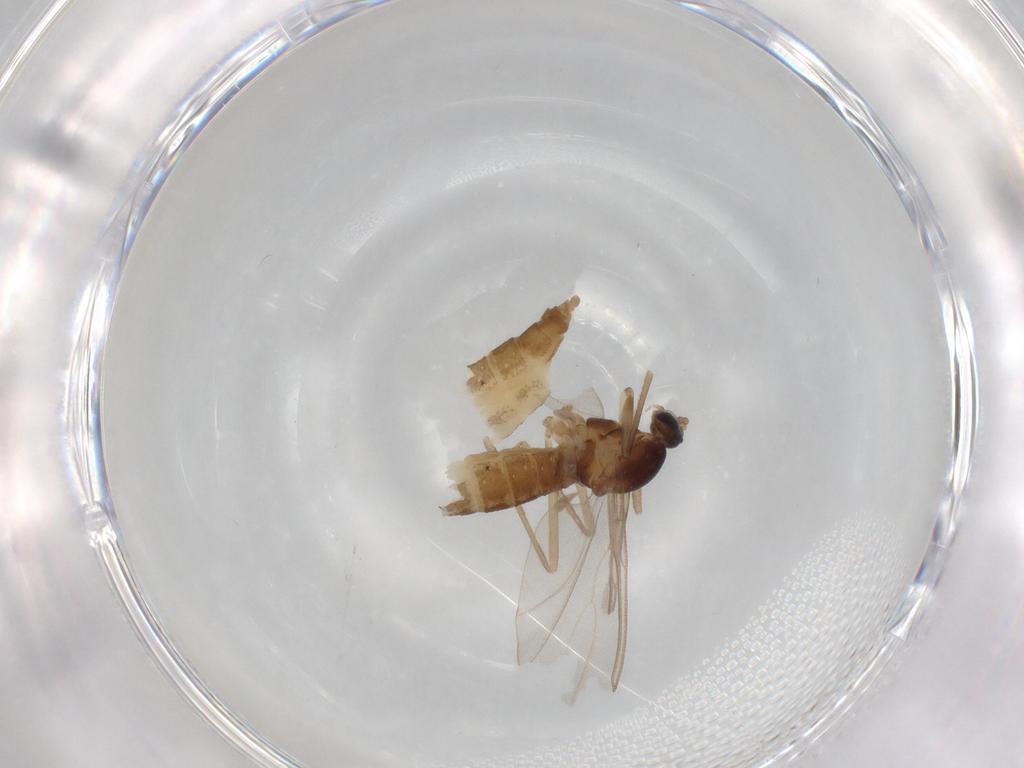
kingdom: Animalia
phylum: Arthropoda
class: Insecta
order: Diptera
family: Cecidomyiidae
